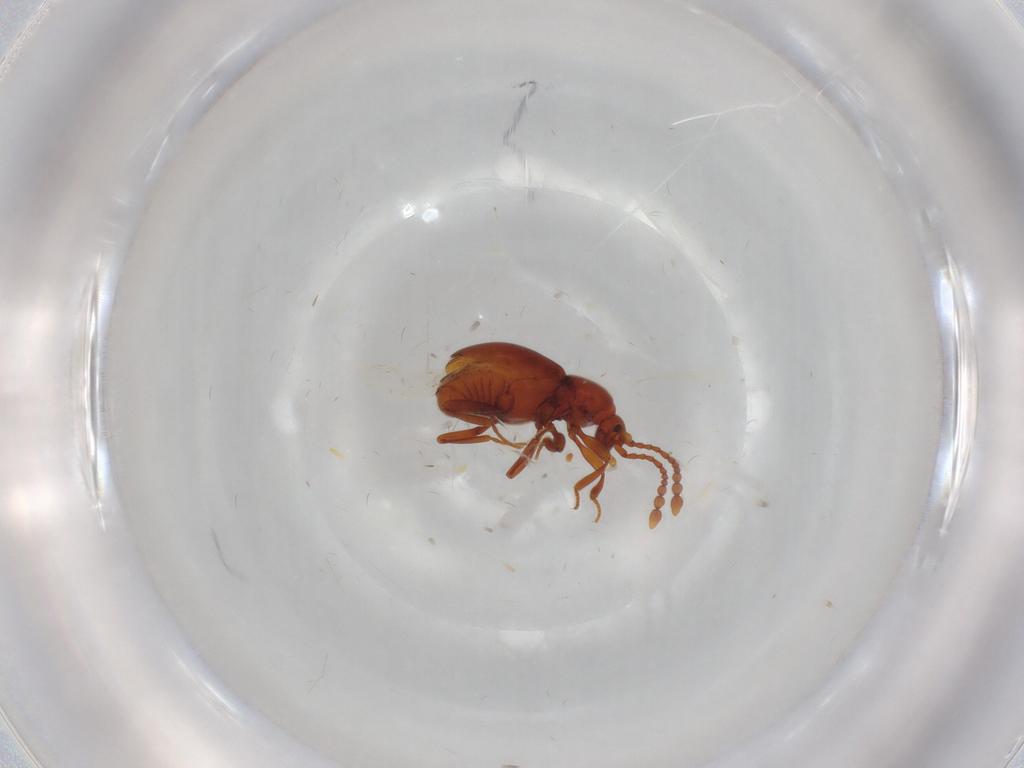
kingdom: Animalia
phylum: Arthropoda
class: Insecta
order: Coleoptera
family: Staphylinidae
